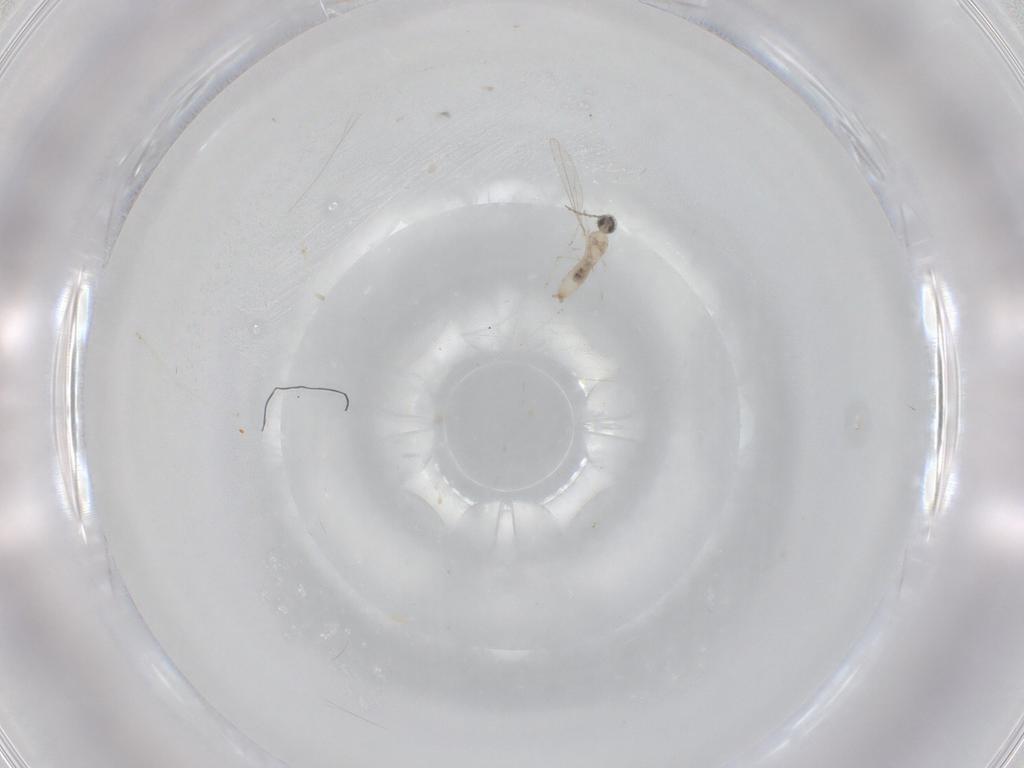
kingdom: Animalia
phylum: Arthropoda
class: Insecta
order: Diptera
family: Cecidomyiidae
